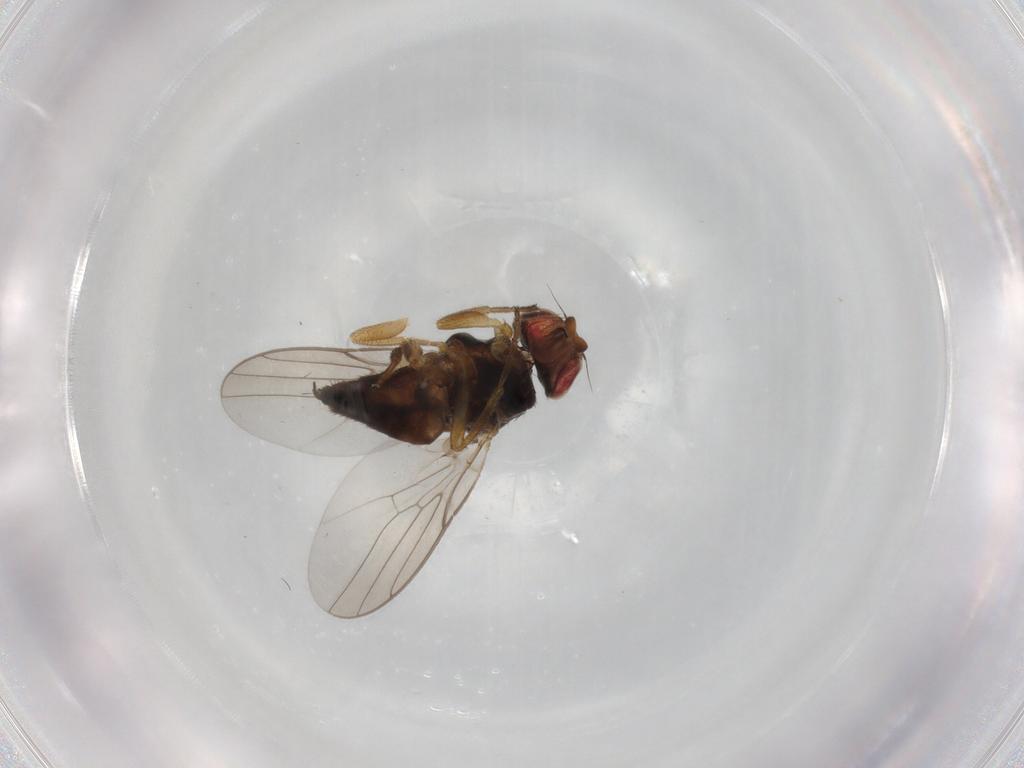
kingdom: Animalia
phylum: Arthropoda
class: Insecta
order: Diptera
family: Chloropidae
